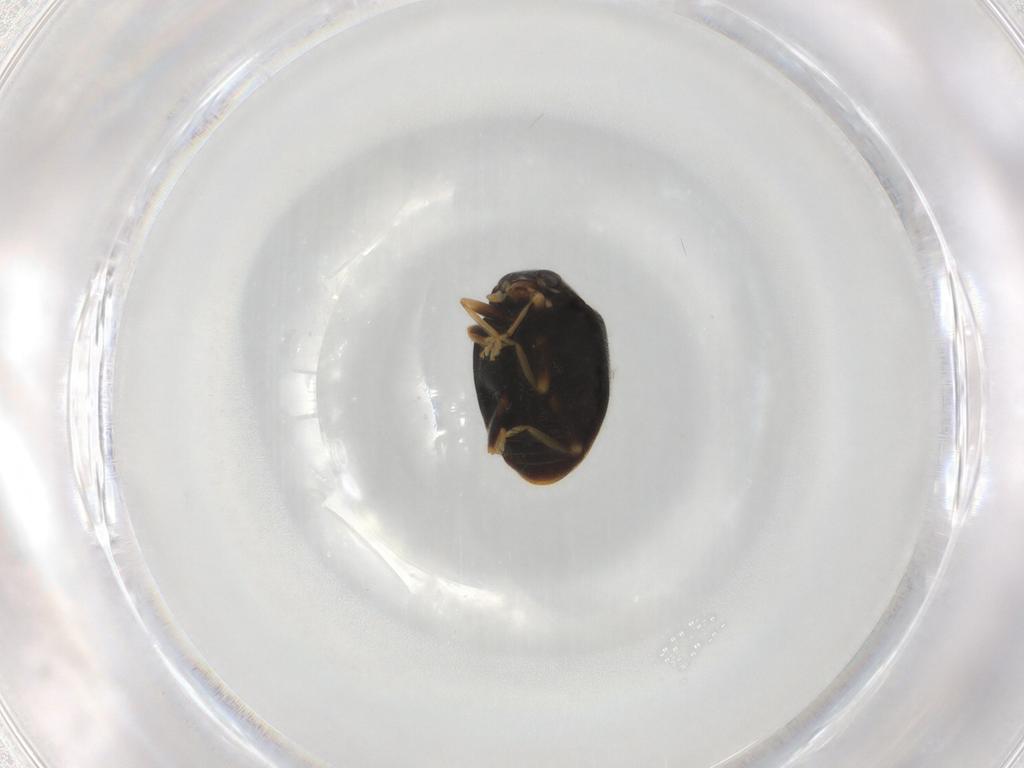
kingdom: Animalia
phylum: Arthropoda
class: Insecta
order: Coleoptera
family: Coccinellidae
